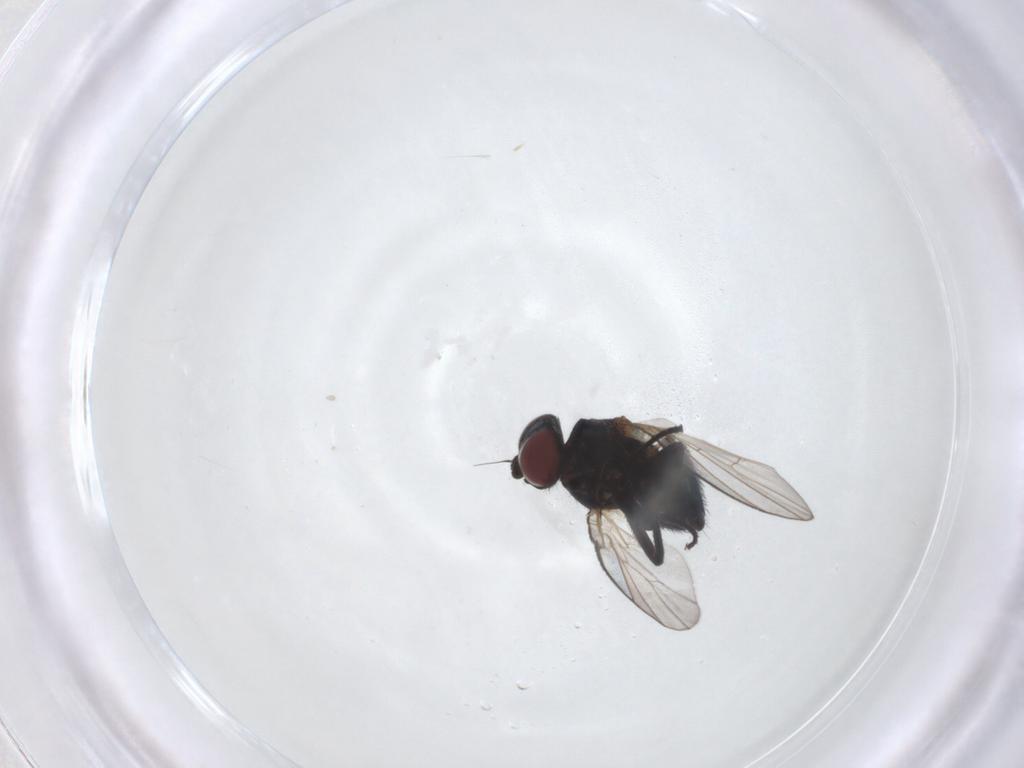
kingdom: Animalia
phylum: Arthropoda
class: Insecta
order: Diptera
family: Agromyzidae
